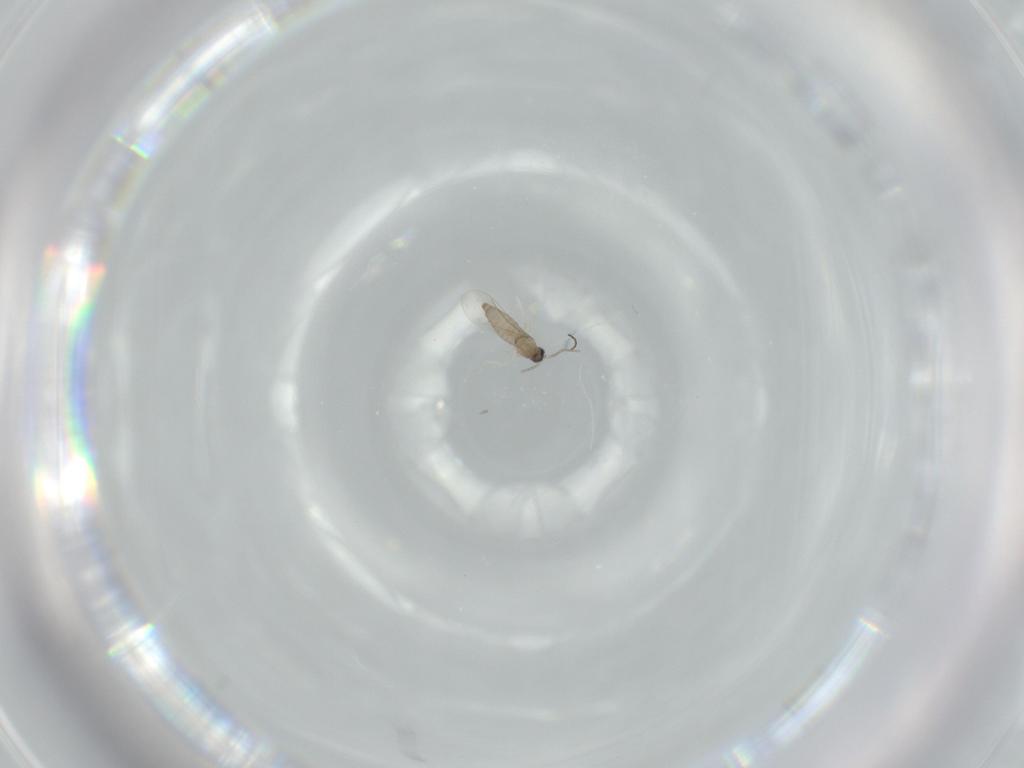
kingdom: Animalia
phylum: Arthropoda
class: Insecta
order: Diptera
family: Cecidomyiidae
